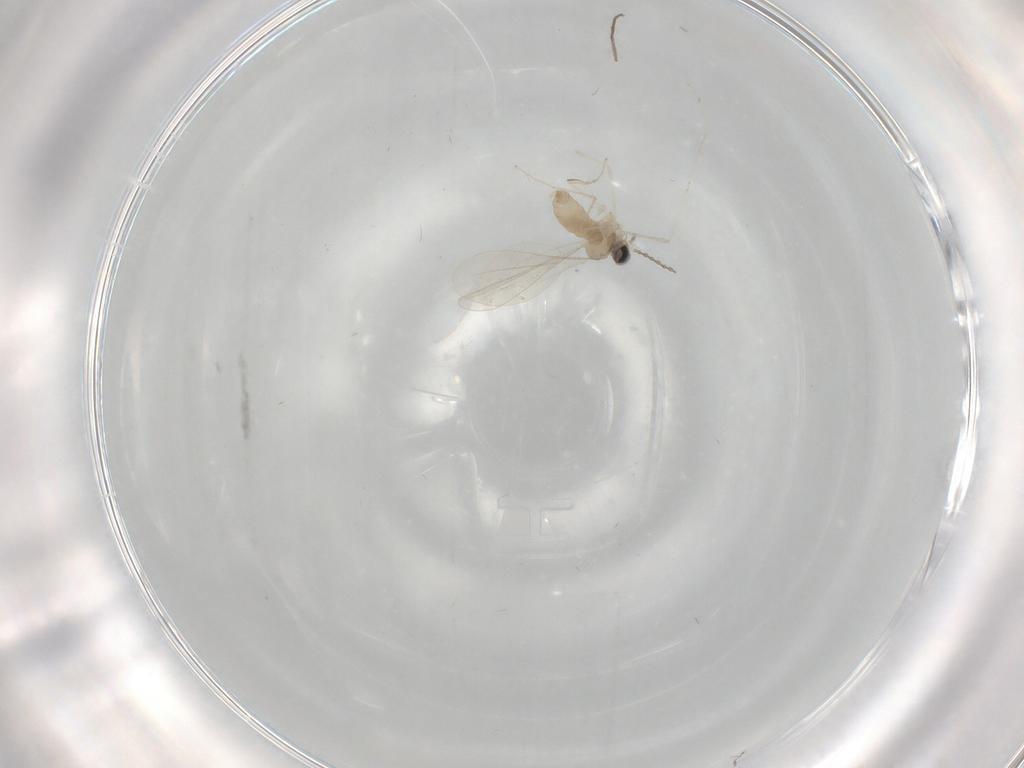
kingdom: Animalia
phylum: Arthropoda
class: Insecta
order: Diptera
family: Cecidomyiidae
